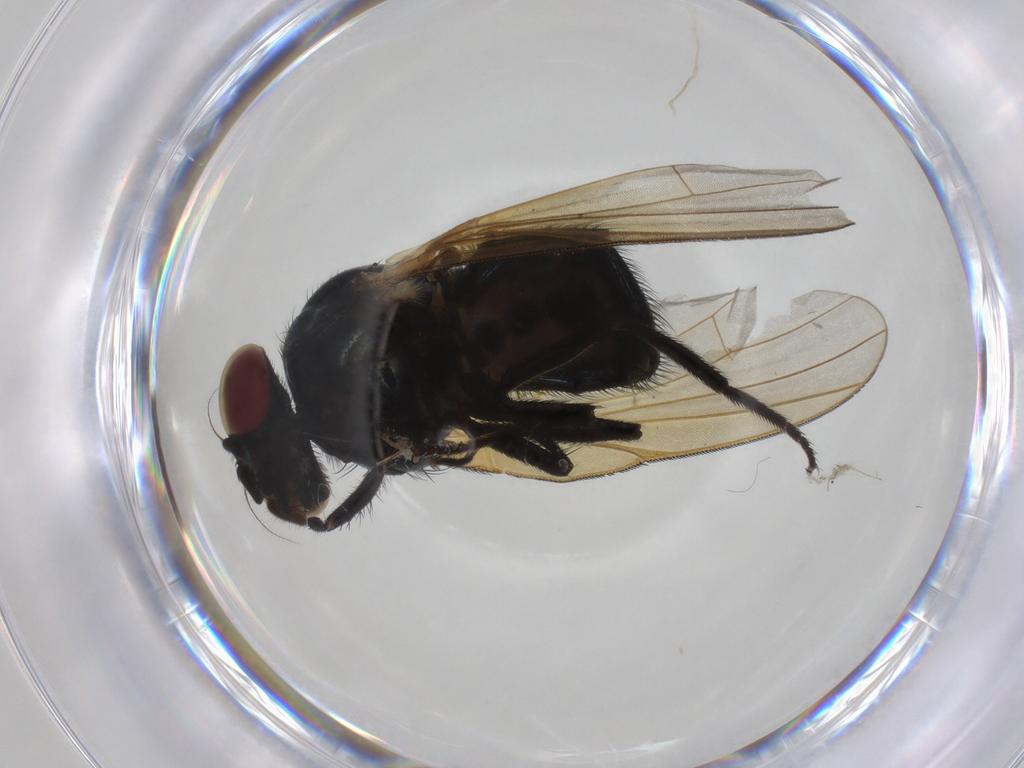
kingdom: Animalia
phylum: Arthropoda
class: Insecta
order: Diptera
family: Lonchaeidae
